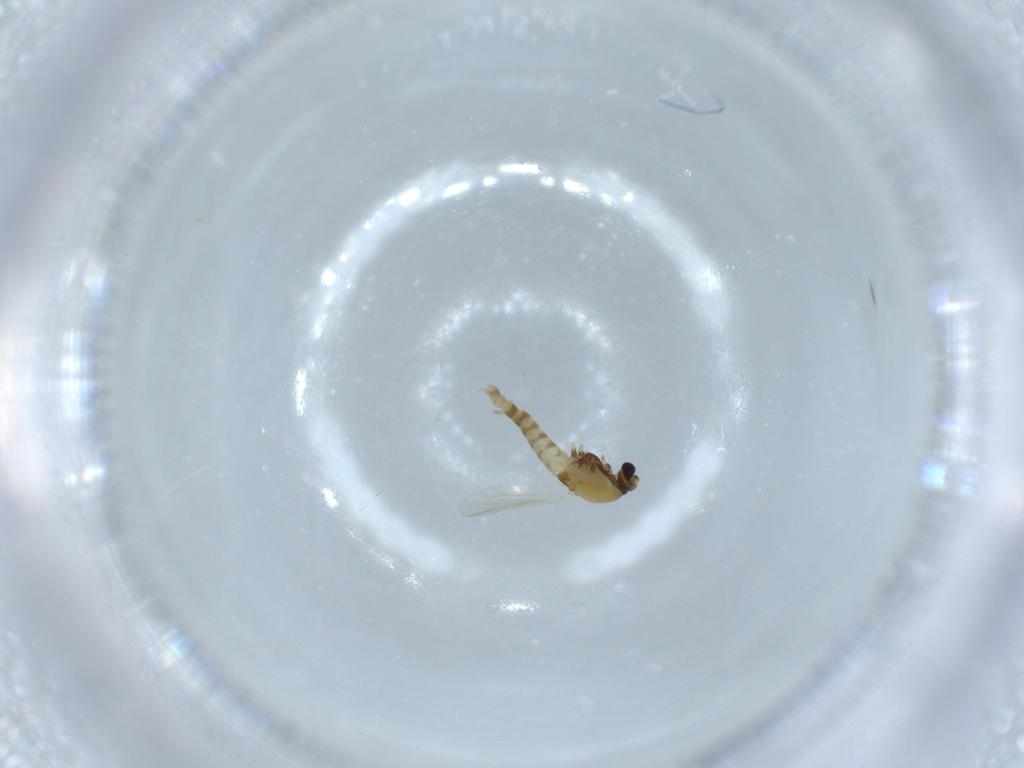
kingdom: Animalia
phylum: Arthropoda
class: Insecta
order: Diptera
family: Chironomidae
